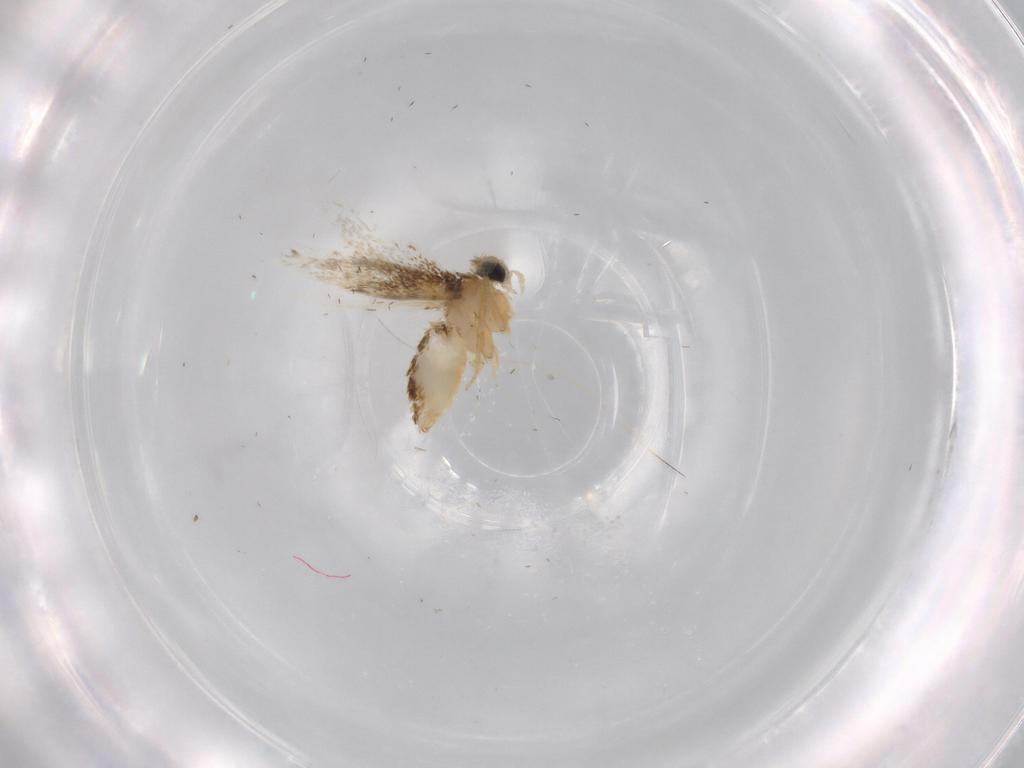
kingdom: Animalia
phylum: Arthropoda
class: Insecta
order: Lepidoptera
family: Nepticulidae
